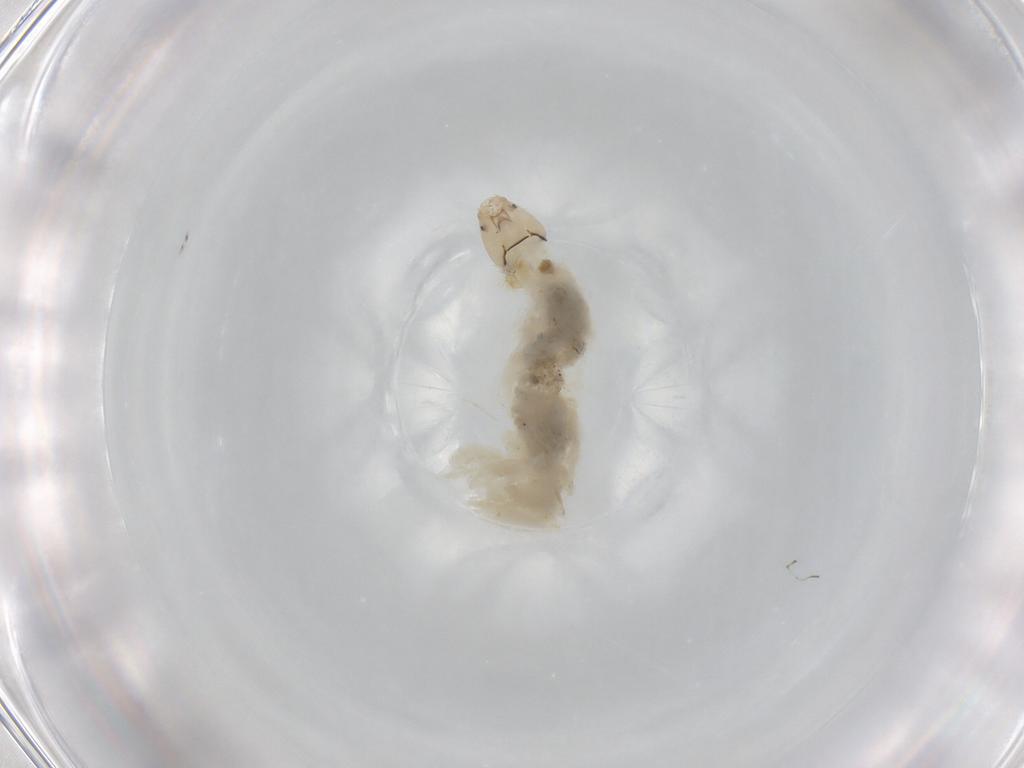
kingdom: Animalia
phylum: Arthropoda
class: Insecta
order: Diptera
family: Chironomidae
